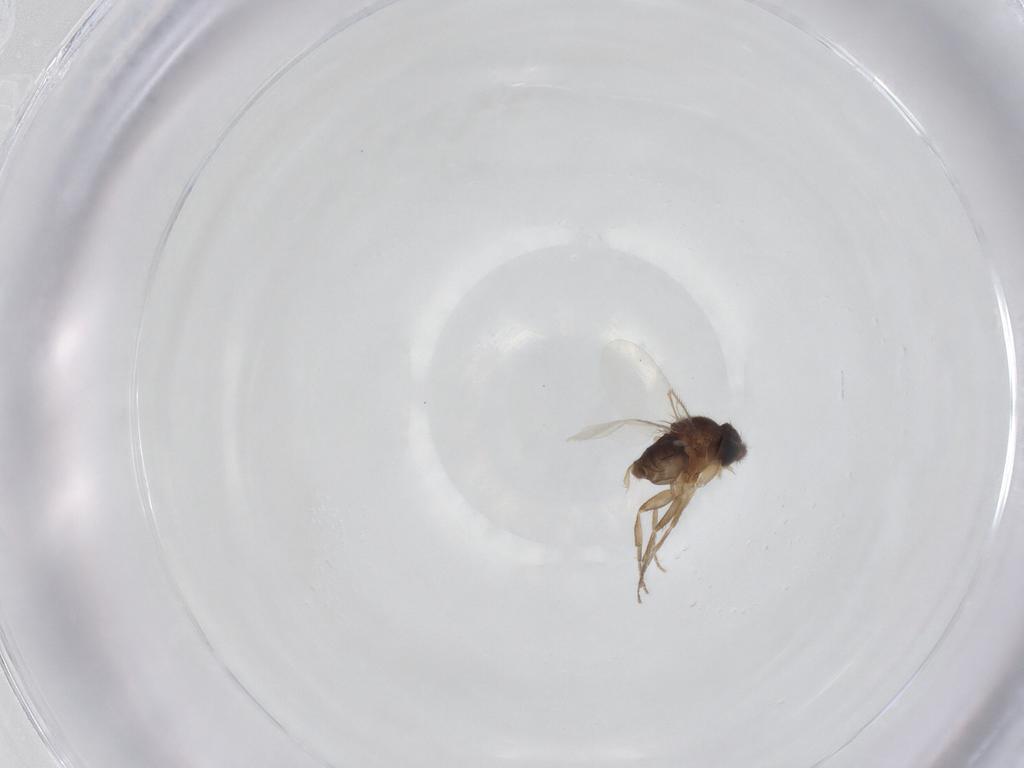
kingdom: Animalia
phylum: Arthropoda
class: Insecta
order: Diptera
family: Phoridae
